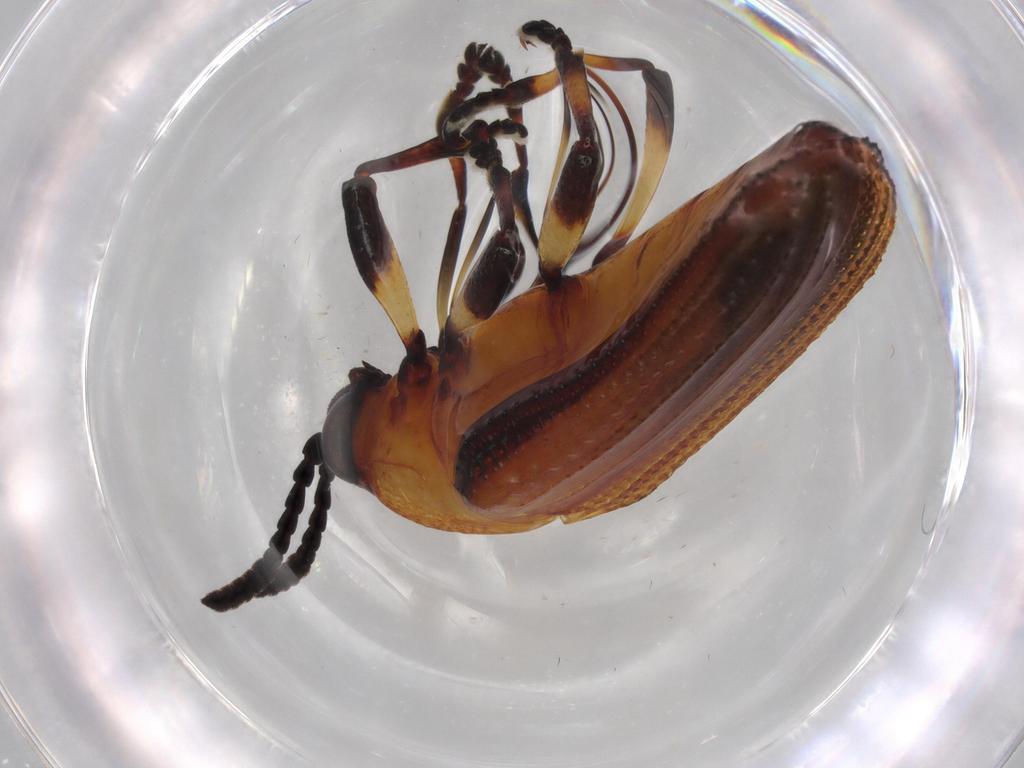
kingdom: Animalia
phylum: Arthropoda
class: Insecta
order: Coleoptera
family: Chrysomelidae
